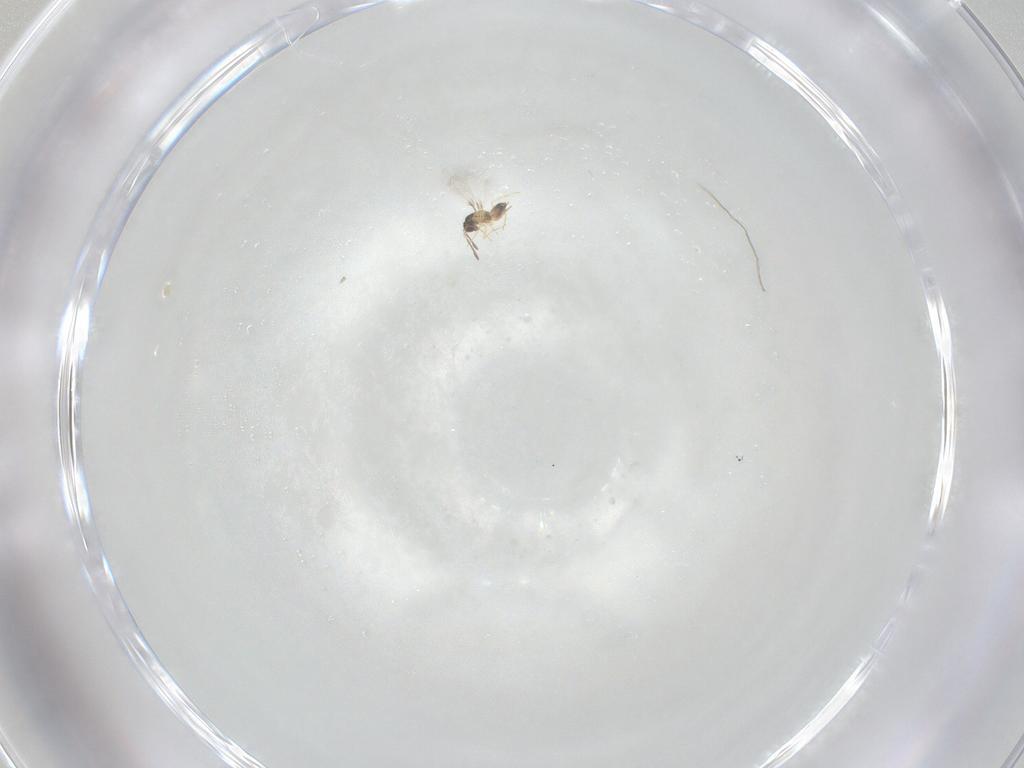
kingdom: Animalia
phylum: Arthropoda
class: Insecta
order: Hymenoptera
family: Mymaridae
